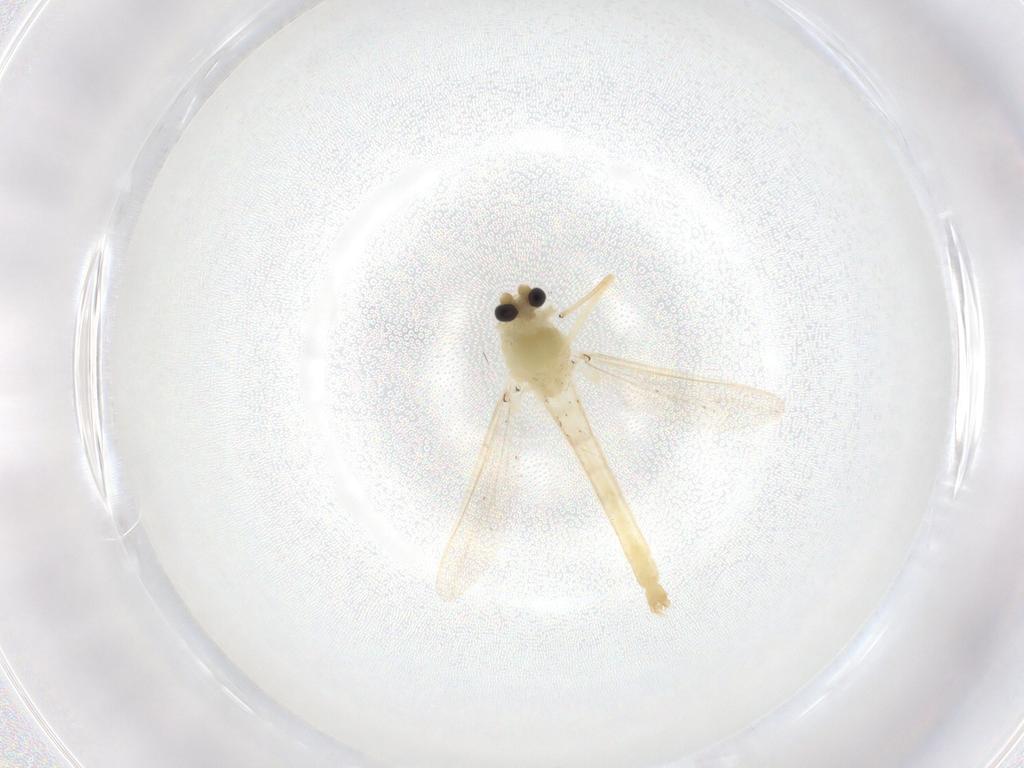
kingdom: Animalia
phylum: Arthropoda
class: Insecta
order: Diptera
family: Chironomidae
